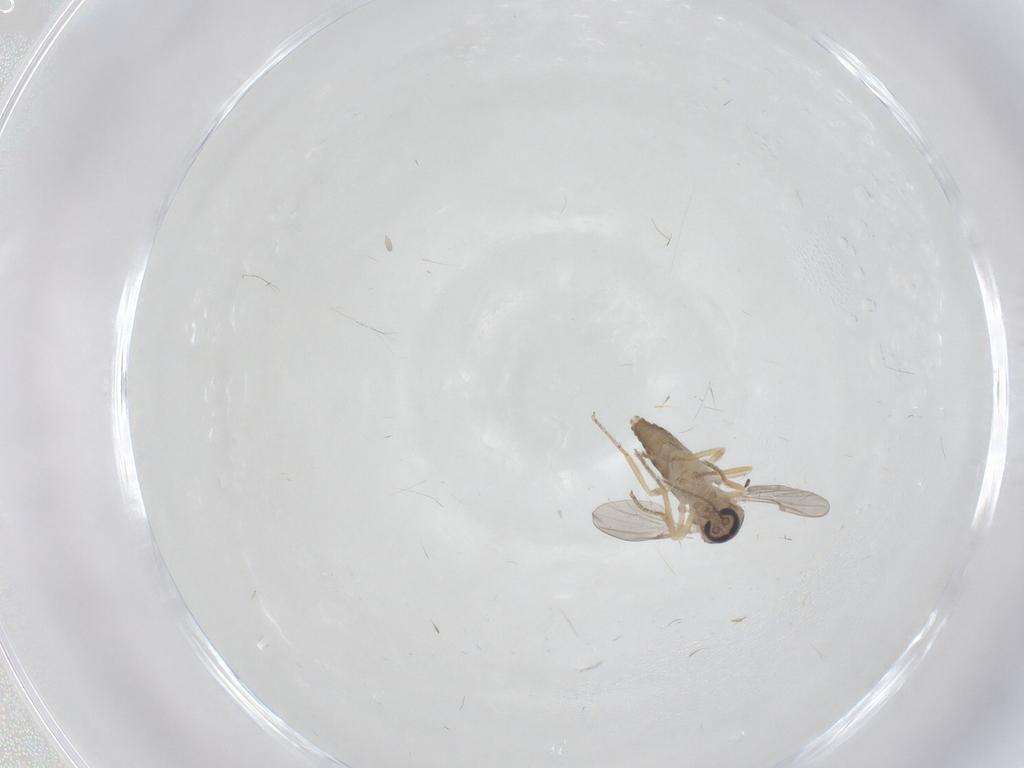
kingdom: Animalia
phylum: Arthropoda
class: Insecta
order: Diptera
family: Ceratopogonidae
